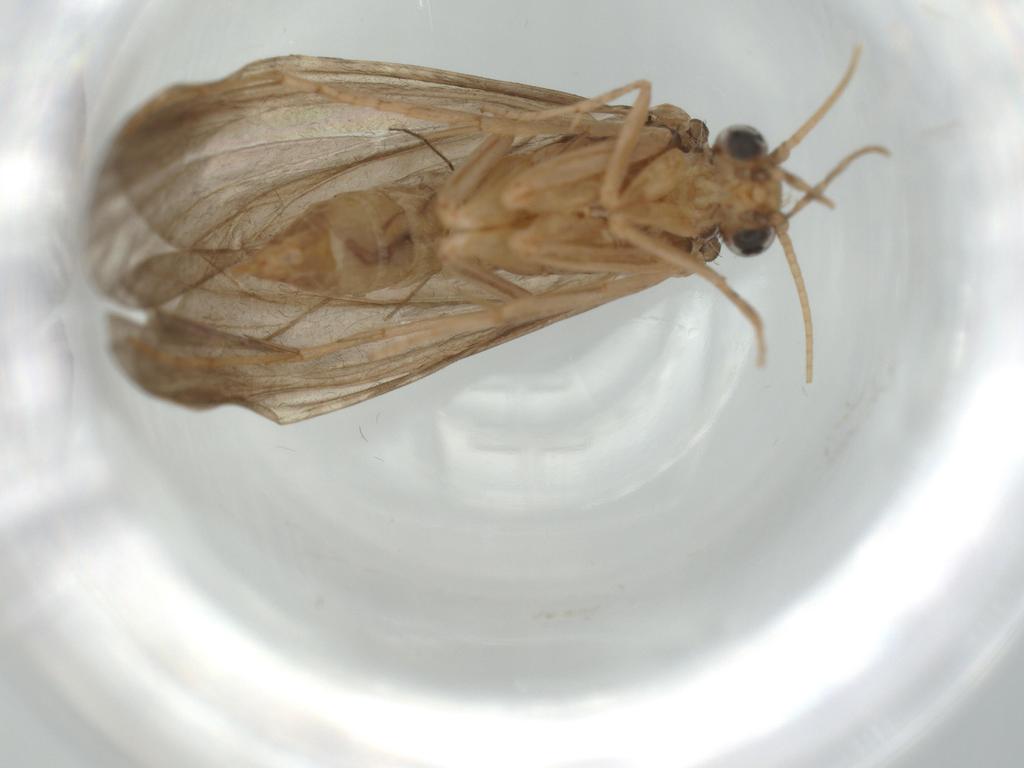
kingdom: Animalia
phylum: Arthropoda
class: Insecta
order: Trichoptera
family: Ecnomidae
